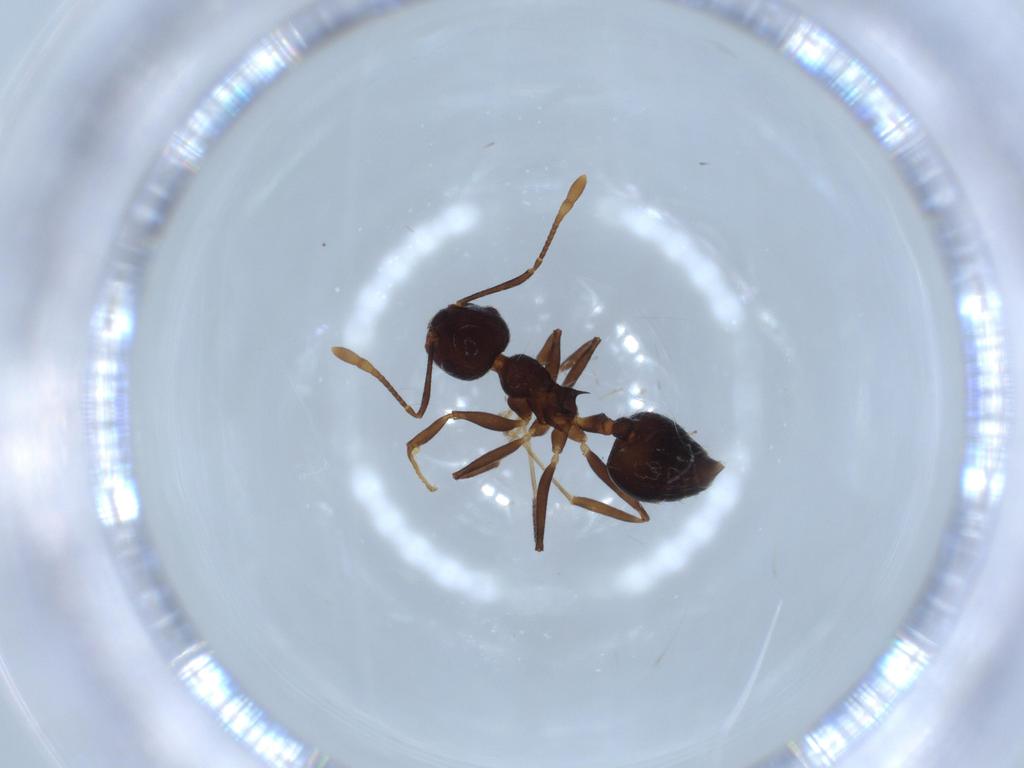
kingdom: Animalia
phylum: Arthropoda
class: Insecta
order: Hymenoptera
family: Formicidae
